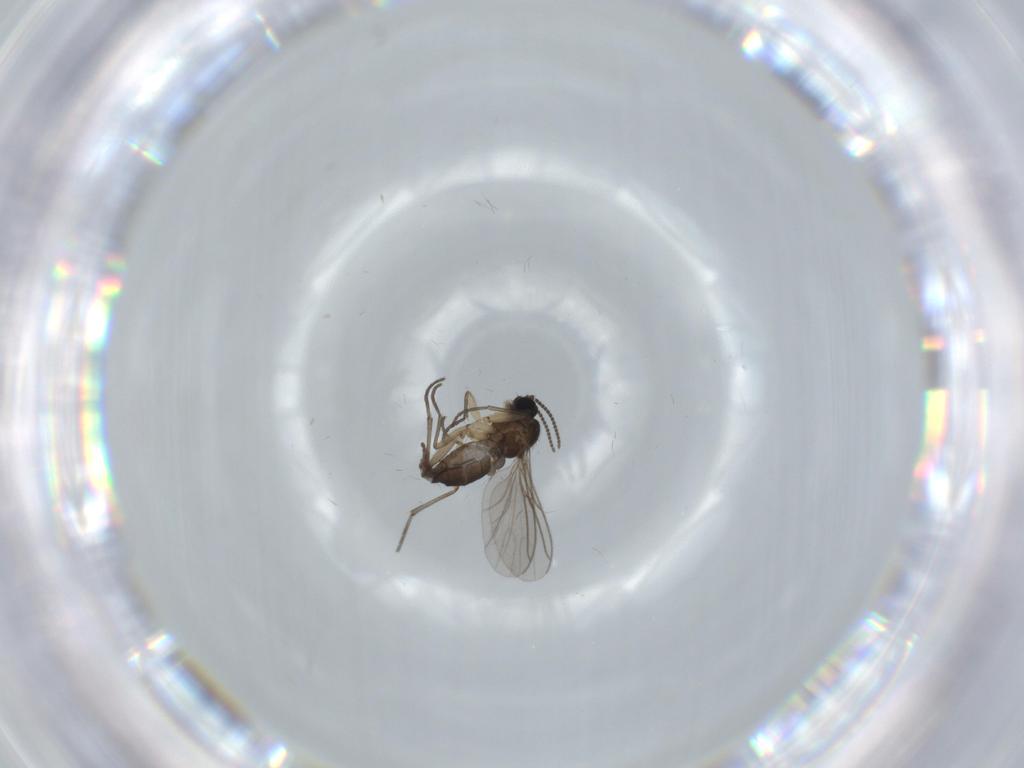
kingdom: Animalia
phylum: Arthropoda
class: Insecta
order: Diptera
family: Sciaridae
